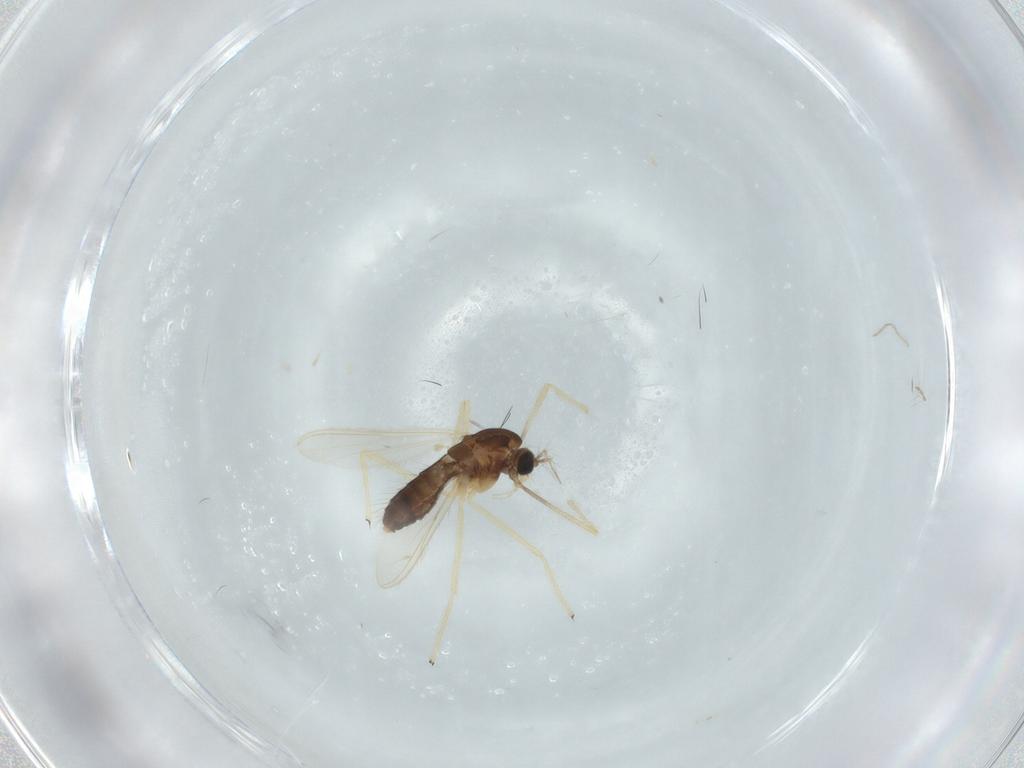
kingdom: Animalia
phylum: Arthropoda
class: Insecta
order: Diptera
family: Chironomidae
